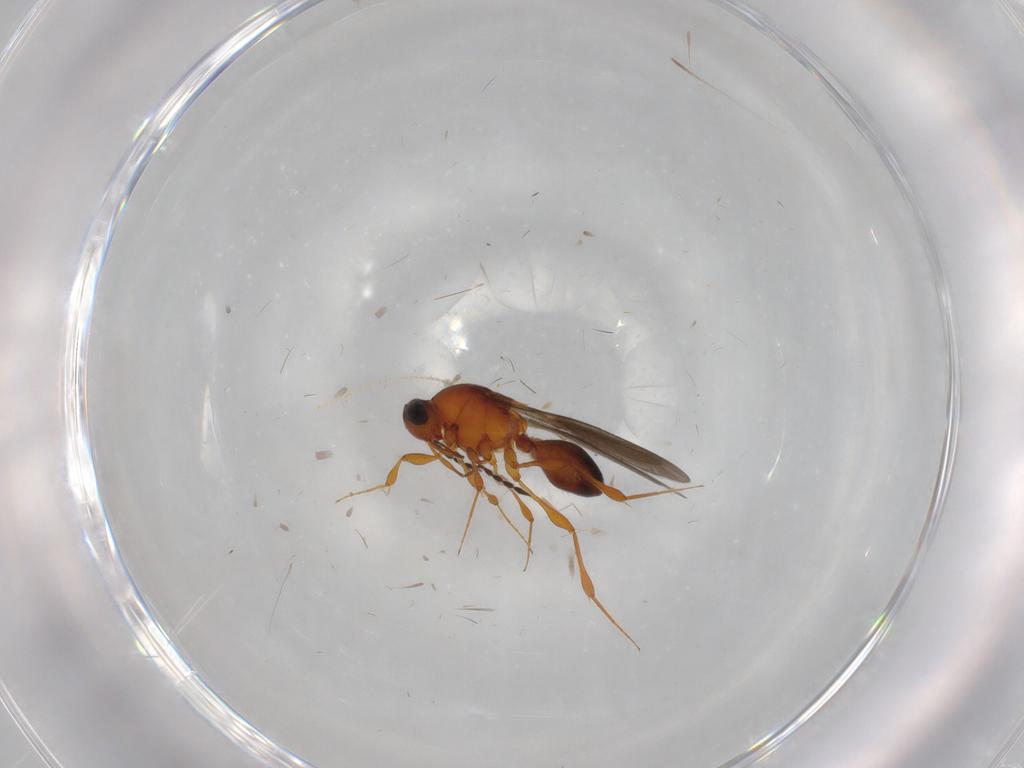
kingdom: Animalia
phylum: Arthropoda
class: Insecta
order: Hymenoptera
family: Platygastridae
